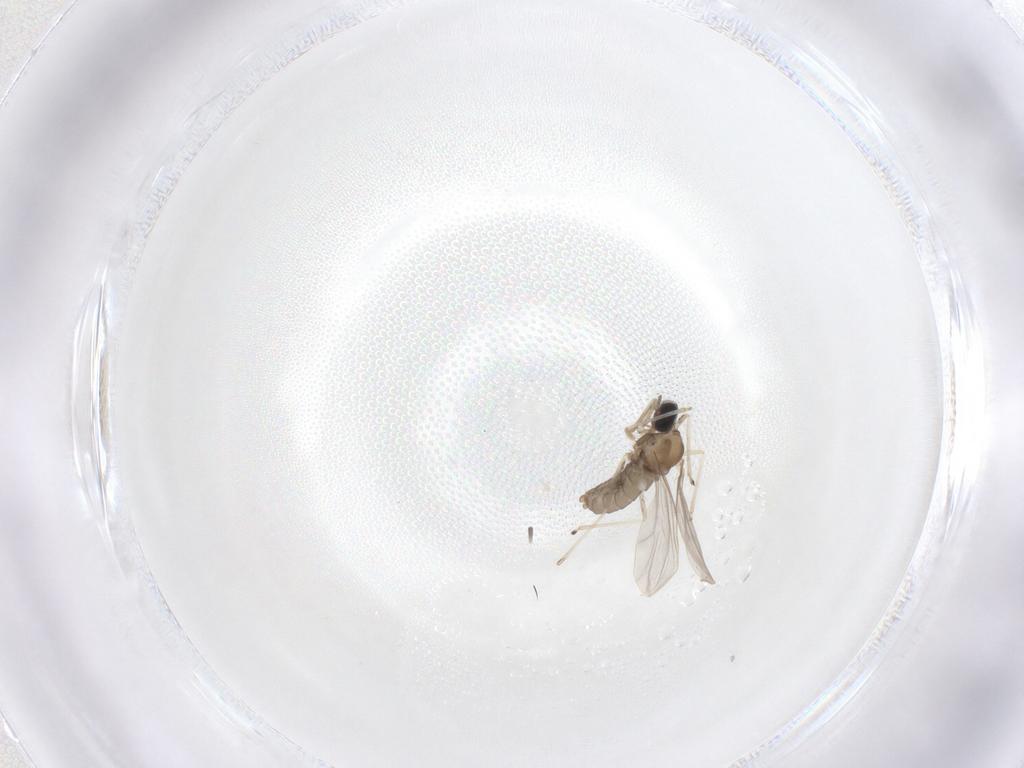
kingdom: Animalia
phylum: Arthropoda
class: Insecta
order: Diptera
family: Cecidomyiidae
